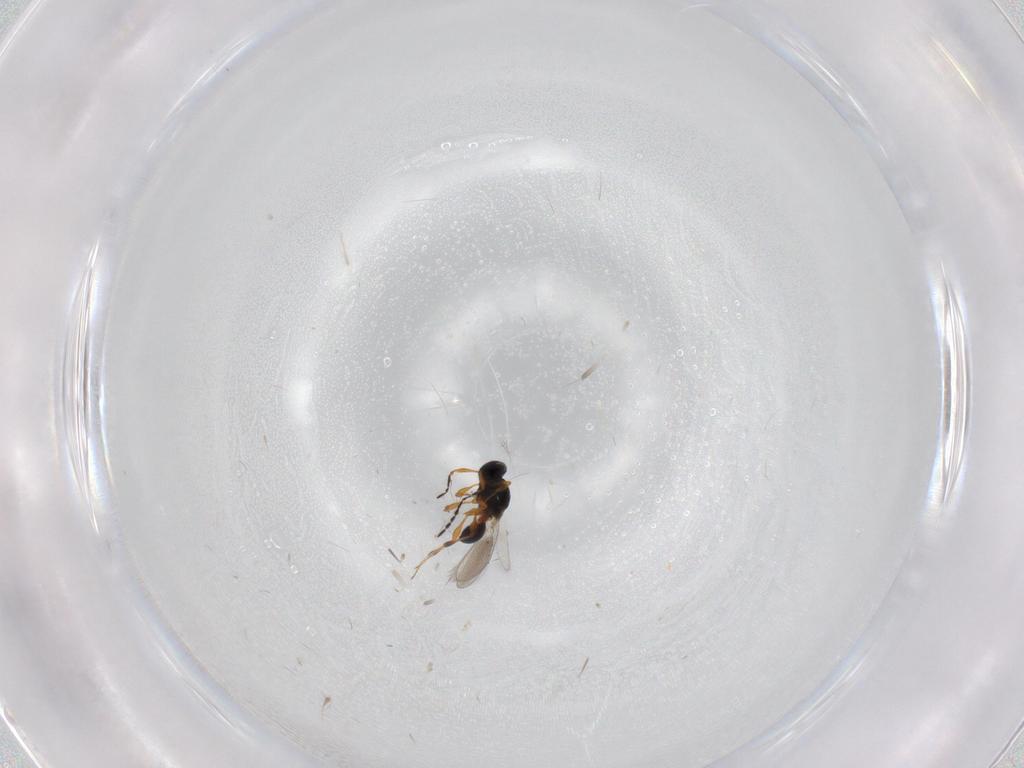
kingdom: Animalia
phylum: Arthropoda
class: Insecta
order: Hymenoptera
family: Platygastridae
